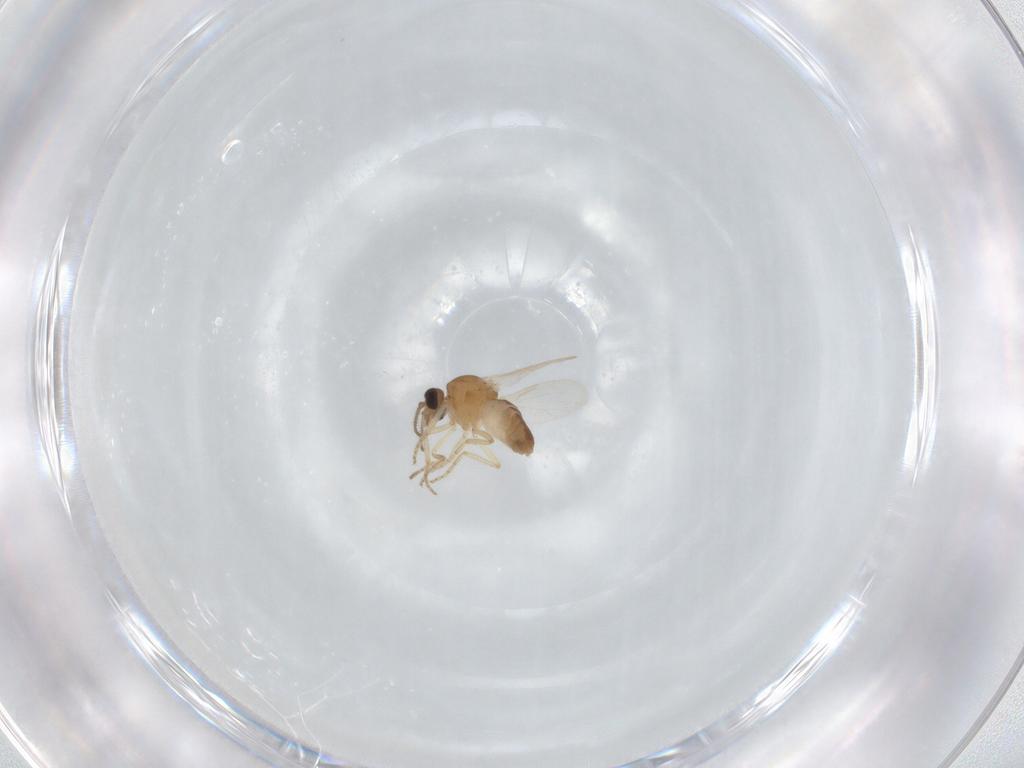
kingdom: Animalia
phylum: Arthropoda
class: Insecta
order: Diptera
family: Ceratopogonidae
